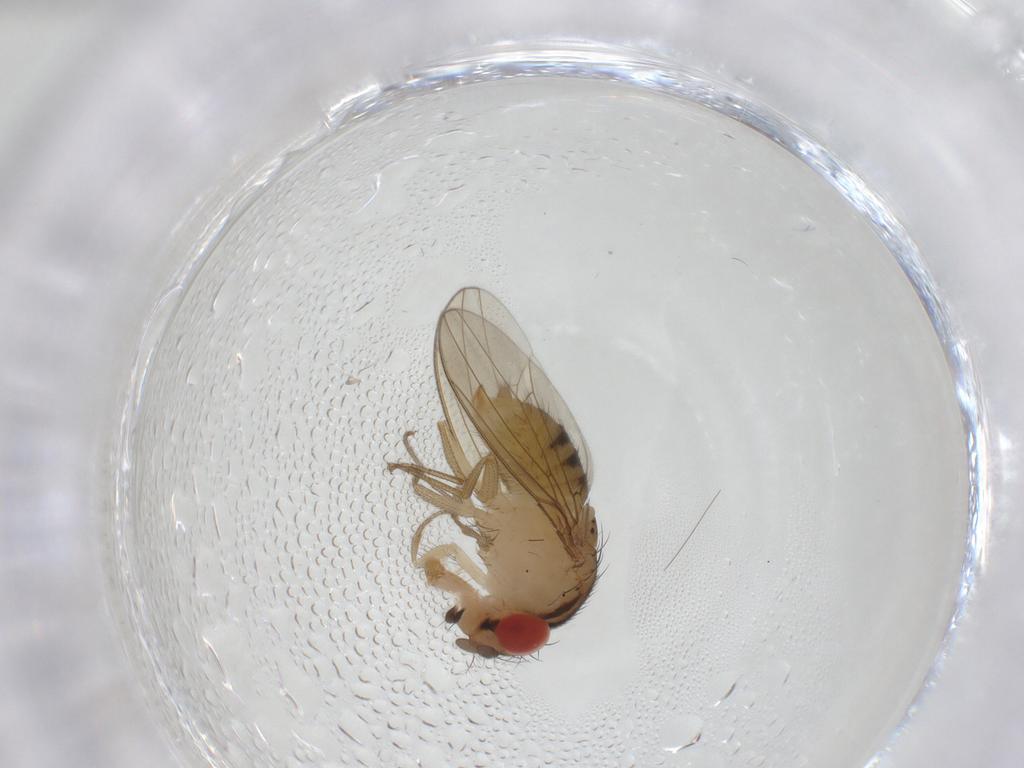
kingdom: Animalia
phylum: Arthropoda
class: Insecta
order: Diptera
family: Drosophilidae
